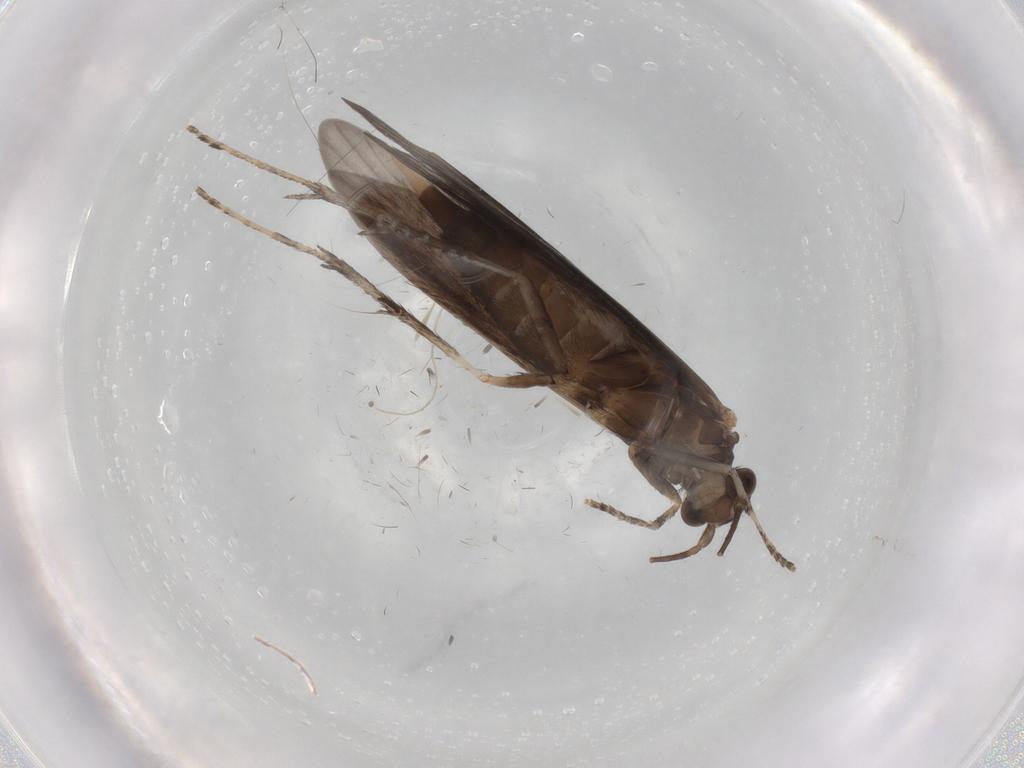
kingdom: Animalia
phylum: Arthropoda
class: Insecta
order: Trichoptera
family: Xiphocentronidae
